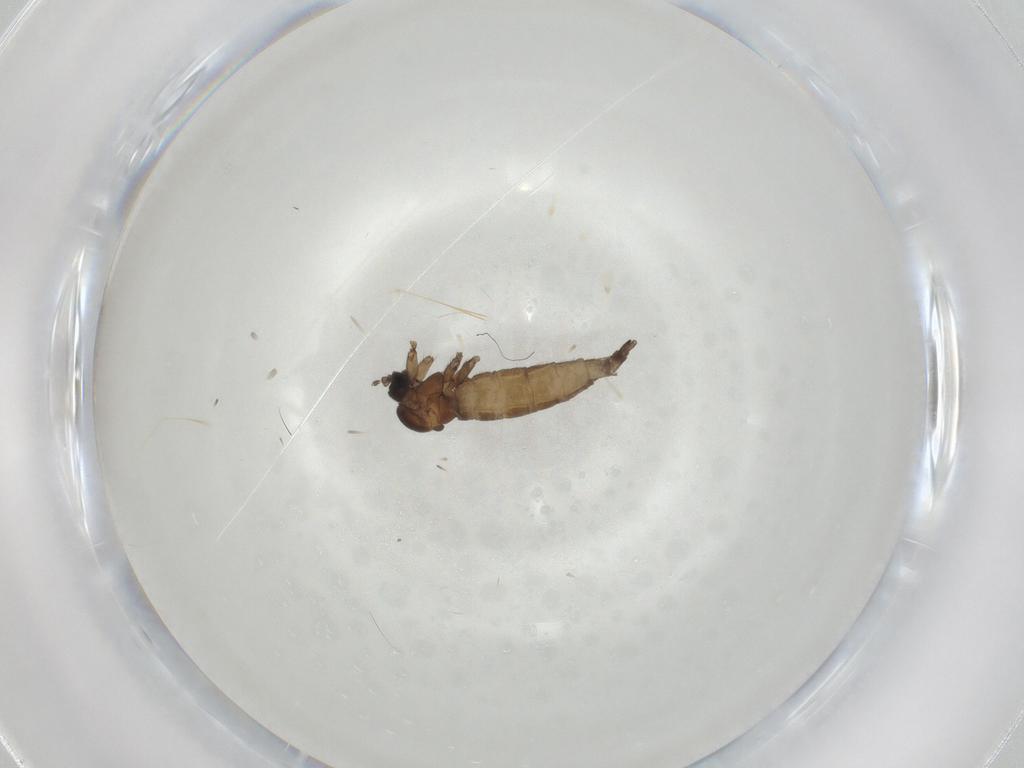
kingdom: Animalia
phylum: Arthropoda
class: Insecta
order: Diptera
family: Sciaridae
